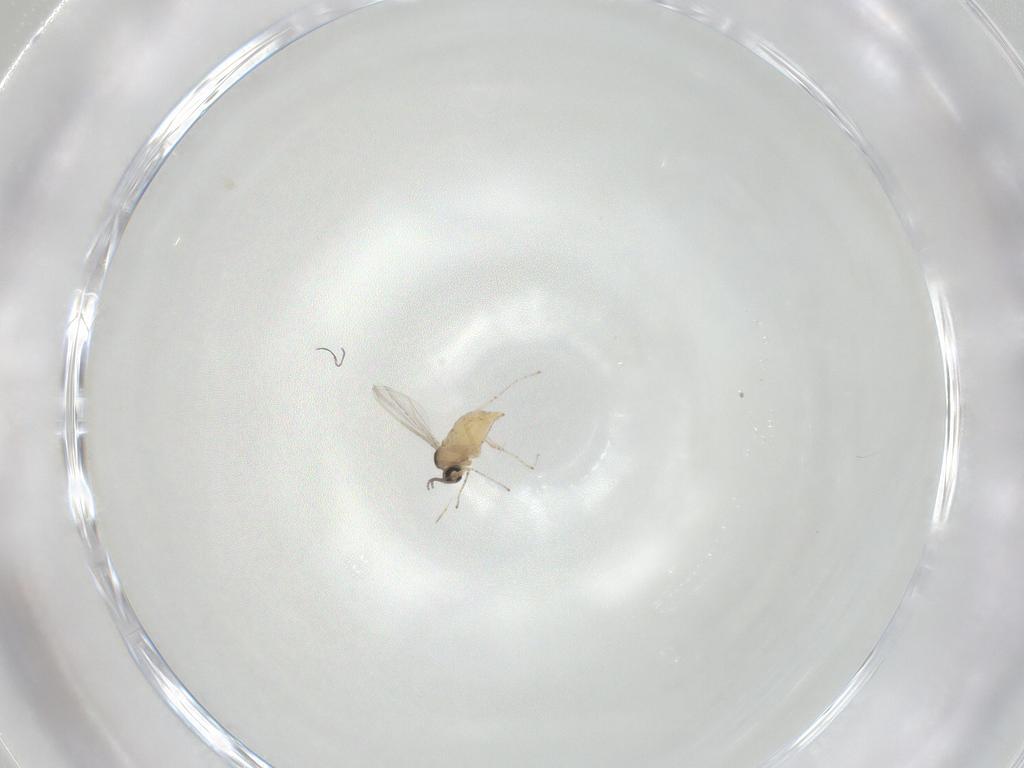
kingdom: Animalia
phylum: Arthropoda
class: Insecta
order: Diptera
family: Cecidomyiidae
